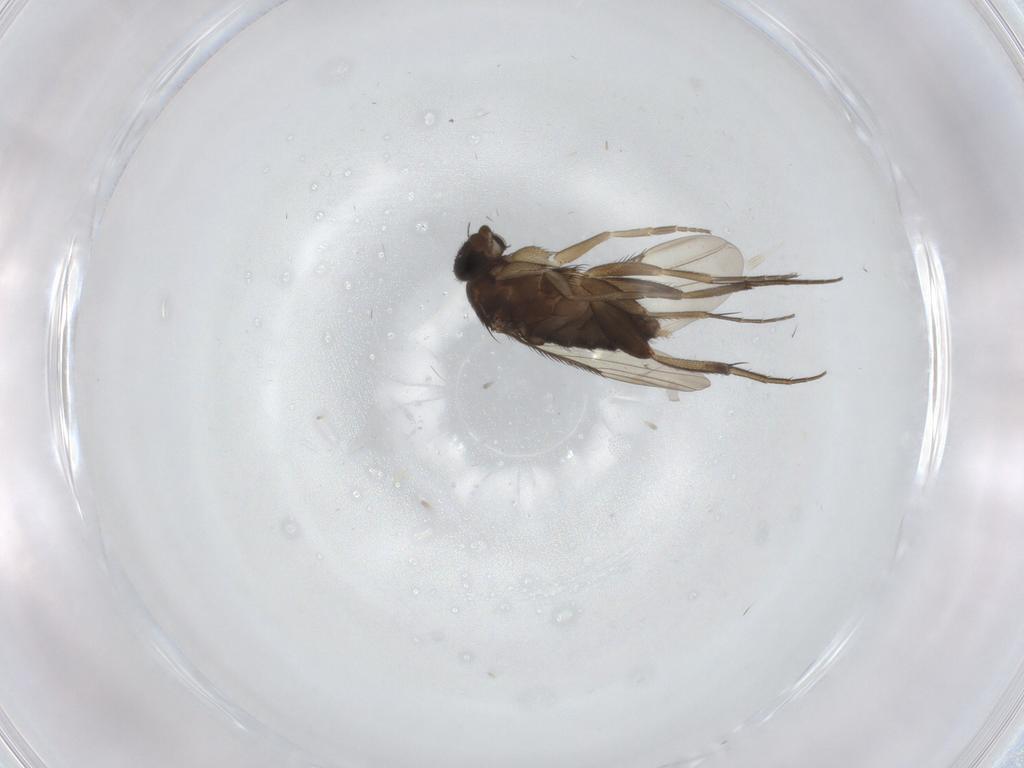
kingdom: Animalia
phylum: Arthropoda
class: Insecta
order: Diptera
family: Phoridae
